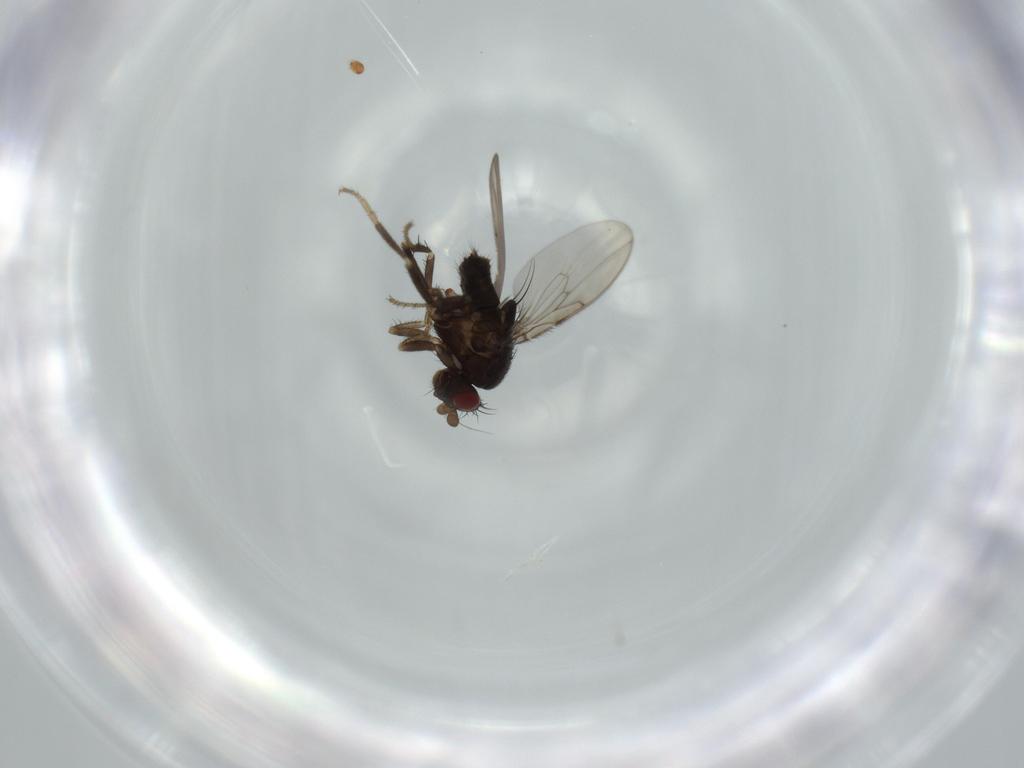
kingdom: Animalia
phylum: Arthropoda
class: Insecta
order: Diptera
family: Sphaeroceridae
